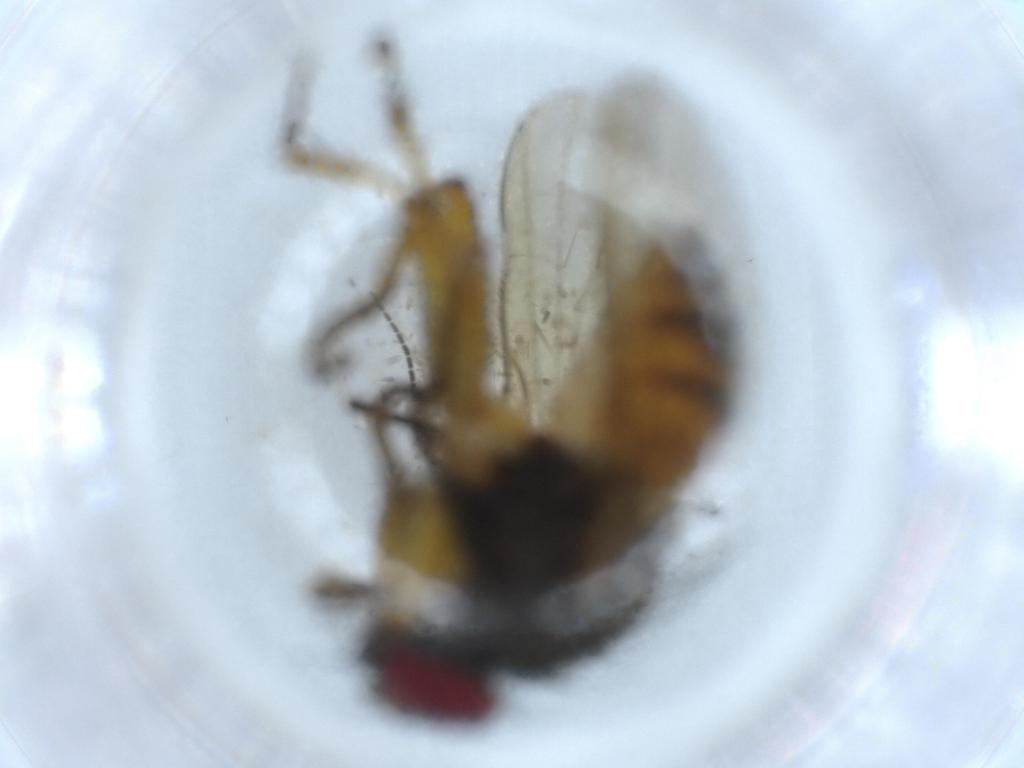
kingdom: Animalia
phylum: Arthropoda
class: Insecta
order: Diptera
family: Muscidae
